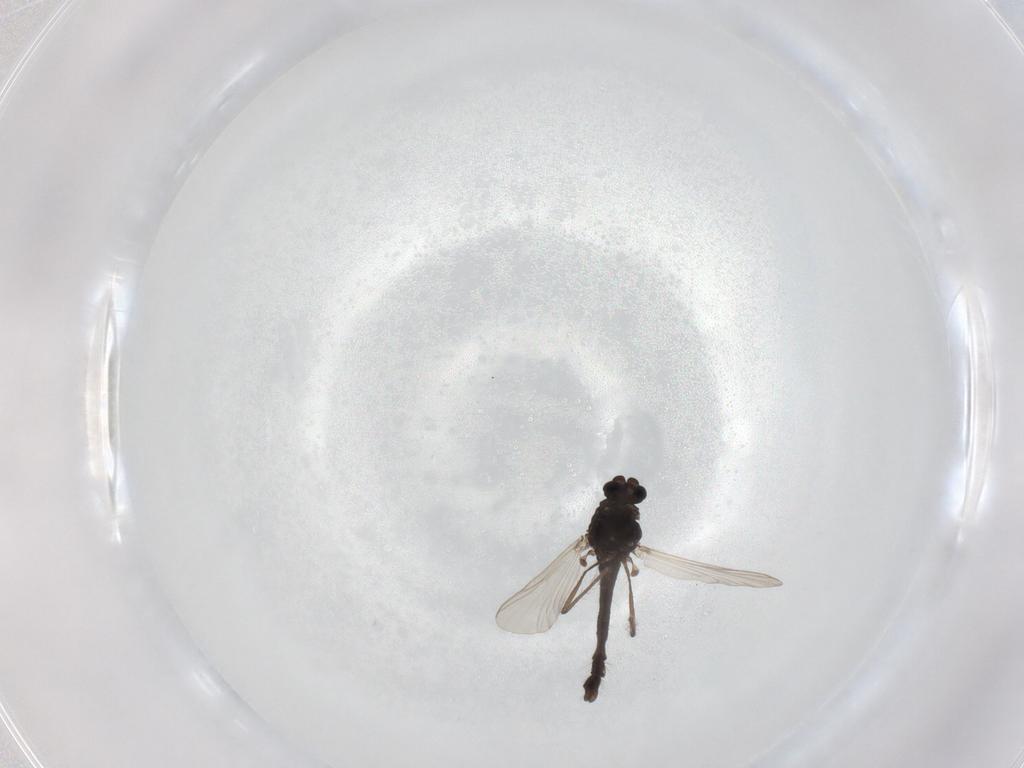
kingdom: Animalia
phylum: Arthropoda
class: Insecta
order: Diptera
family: Chironomidae
